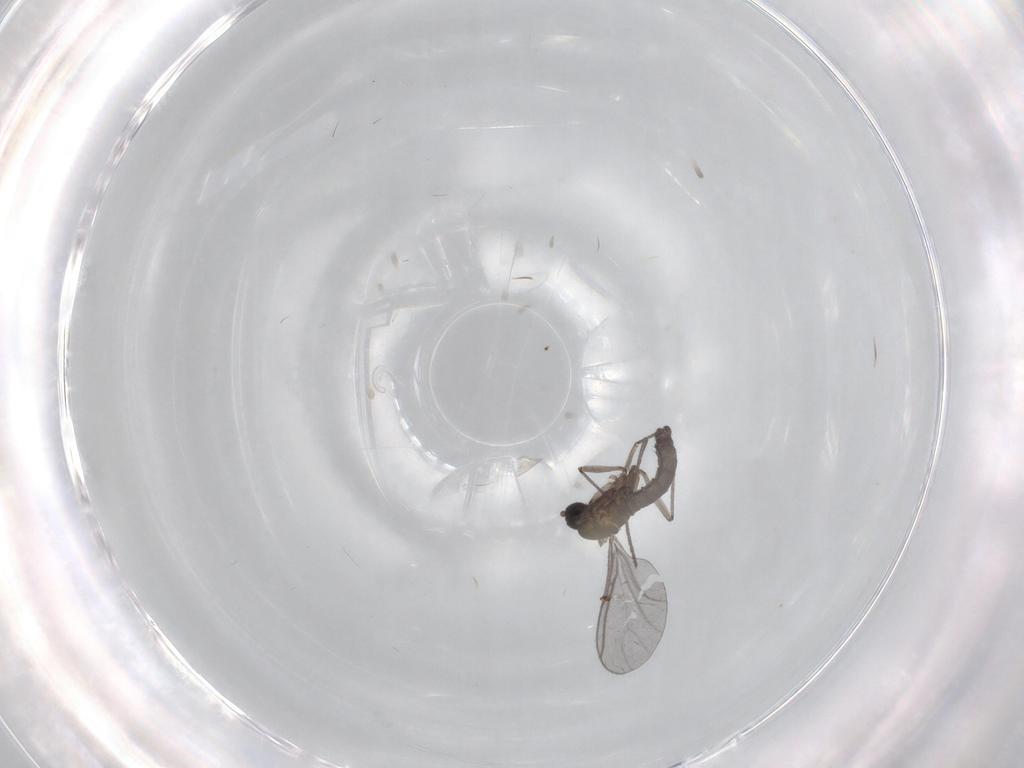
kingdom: Animalia
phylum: Arthropoda
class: Insecta
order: Diptera
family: Sciaridae
